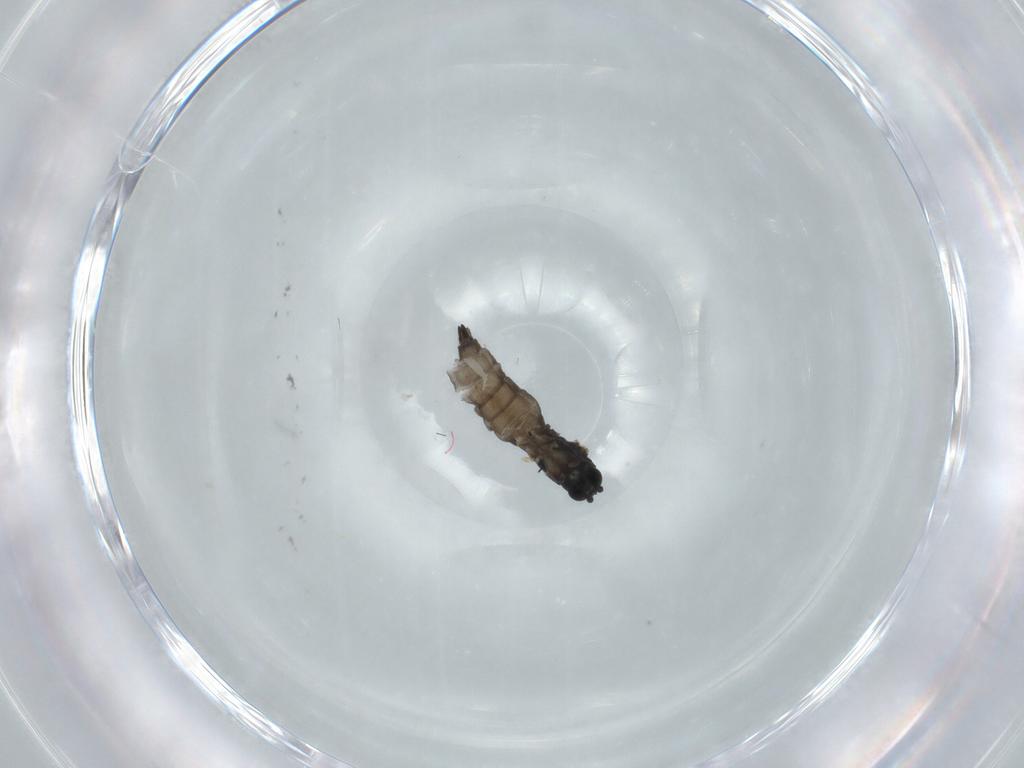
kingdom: Animalia
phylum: Arthropoda
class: Insecta
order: Diptera
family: Sciaridae
